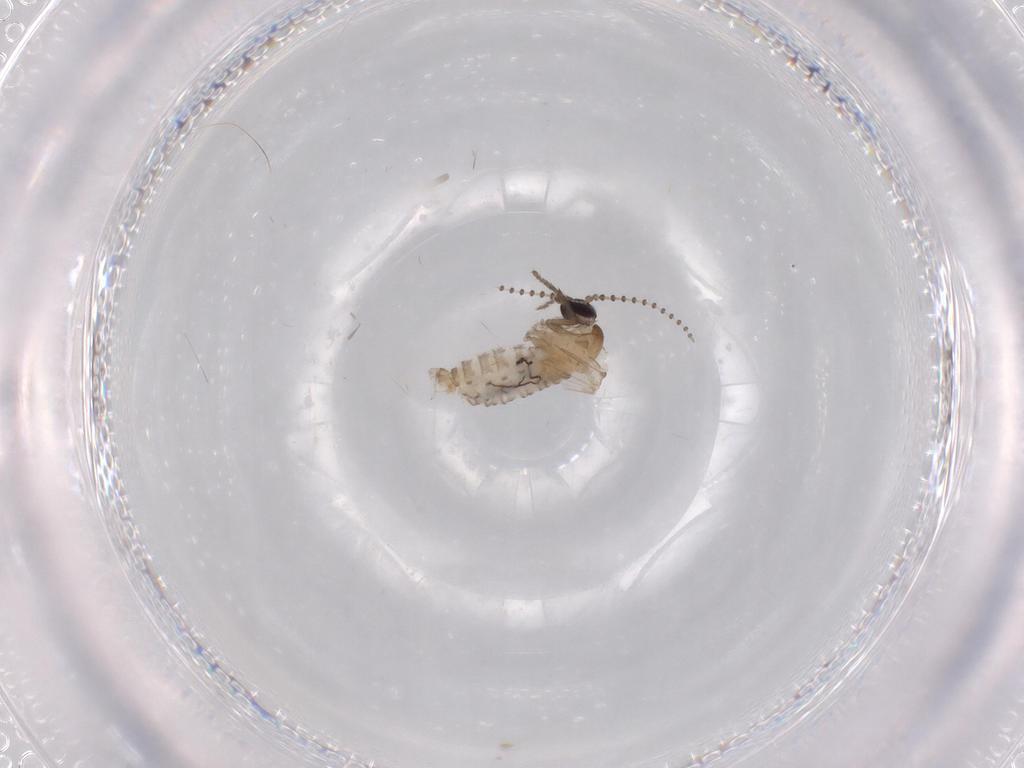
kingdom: Animalia
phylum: Arthropoda
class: Insecta
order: Diptera
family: Psychodidae
